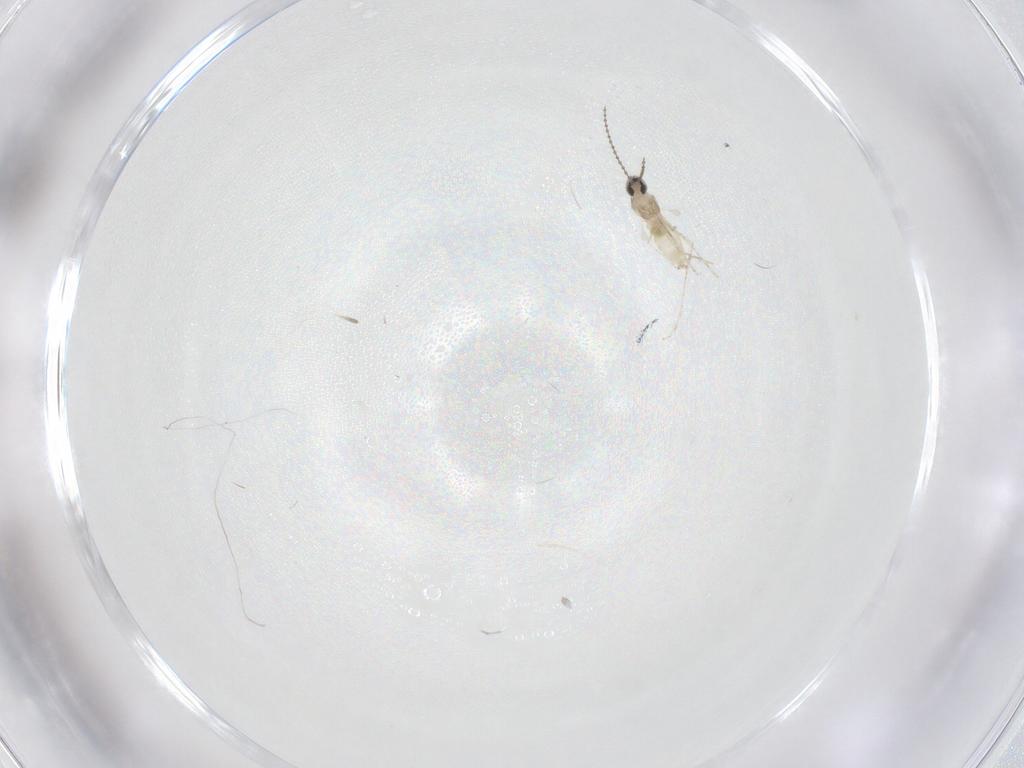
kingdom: Animalia
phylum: Arthropoda
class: Insecta
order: Diptera
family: Cecidomyiidae
